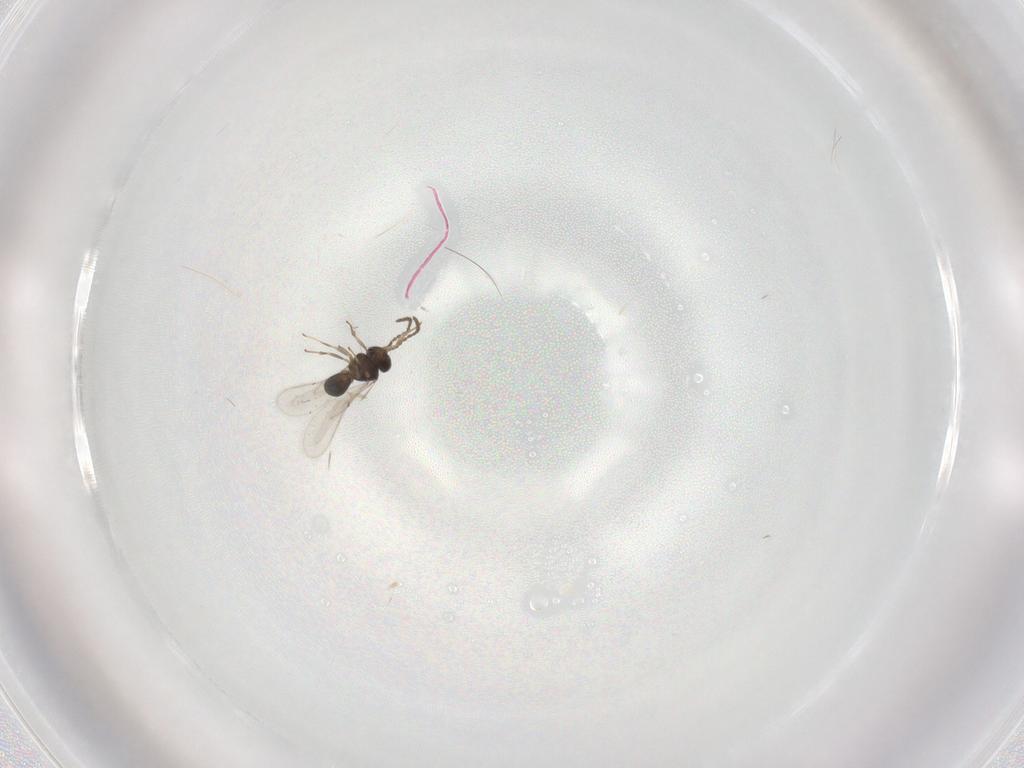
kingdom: Animalia
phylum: Arthropoda
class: Insecta
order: Hymenoptera
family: Scelionidae
